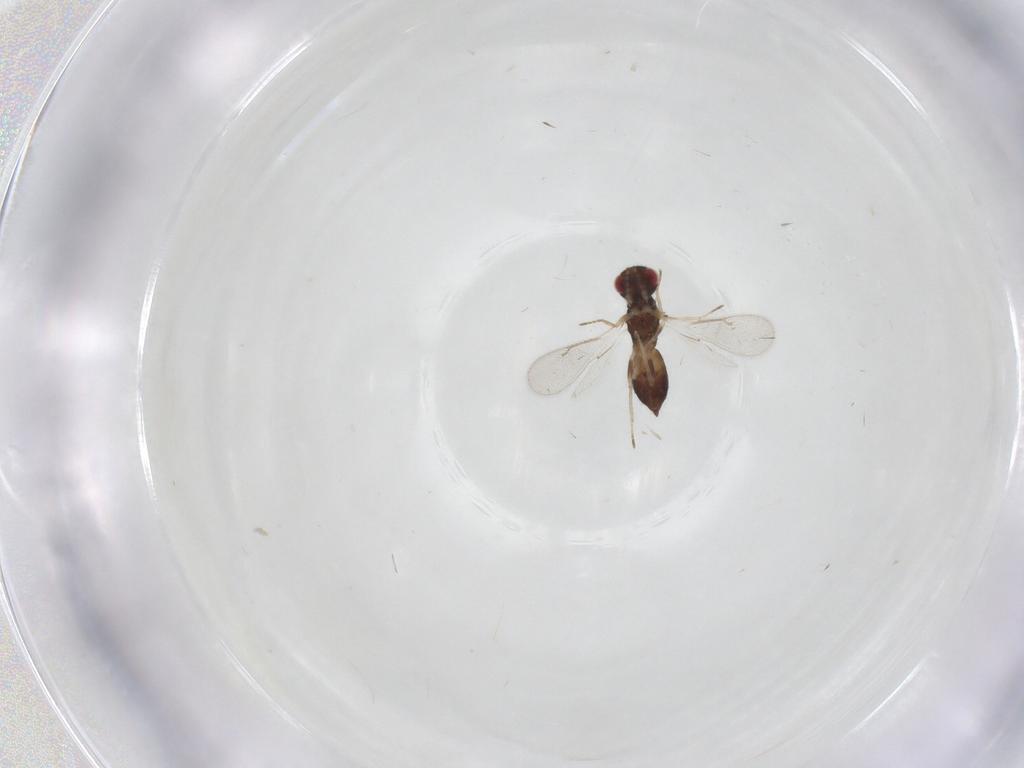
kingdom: Animalia
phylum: Arthropoda
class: Insecta
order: Hymenoptera
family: Eulophidae
